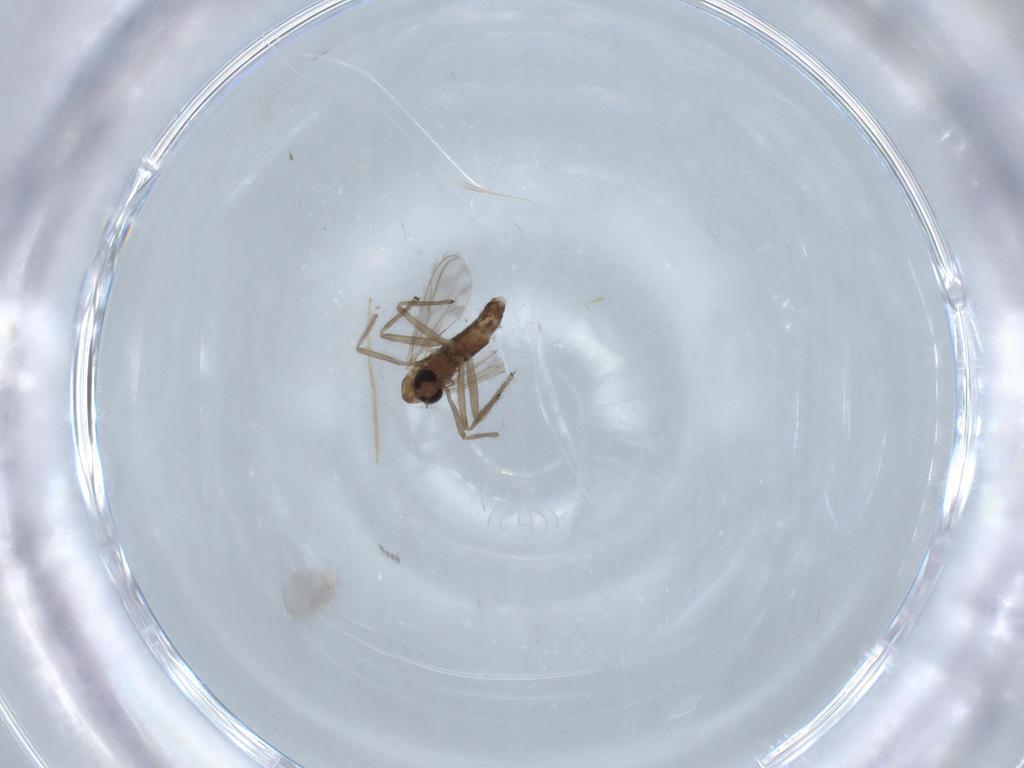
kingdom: Animalia
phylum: Arthropoda
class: Insecta
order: Diptera
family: Chironomidae
